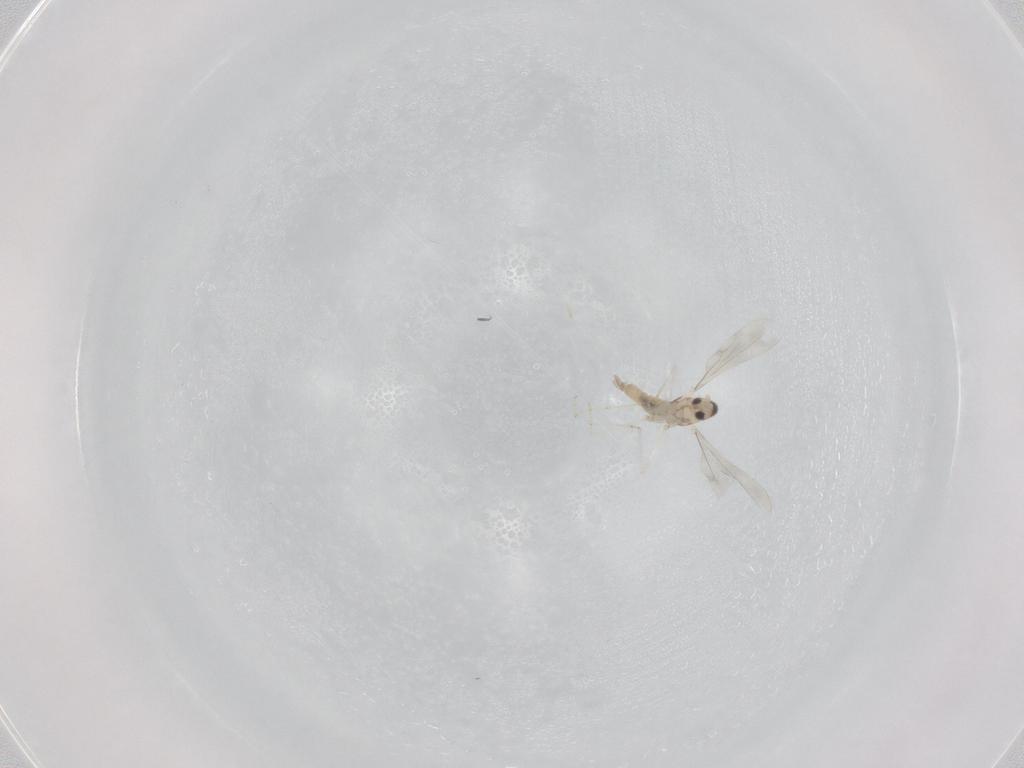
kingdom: Animalia
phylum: Arthropoda
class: Insecta
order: Diptera
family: Cecidomyiidae
